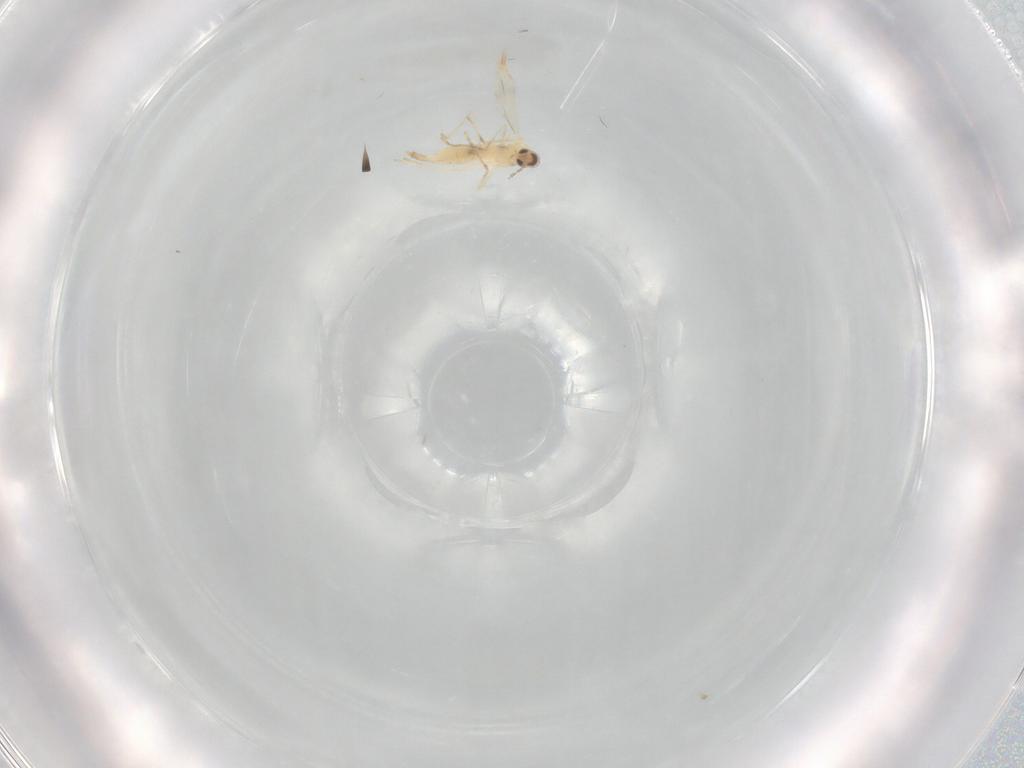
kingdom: Animalia
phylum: Arthropoda
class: Insecta
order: Diptera
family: Cecidomyiidae
